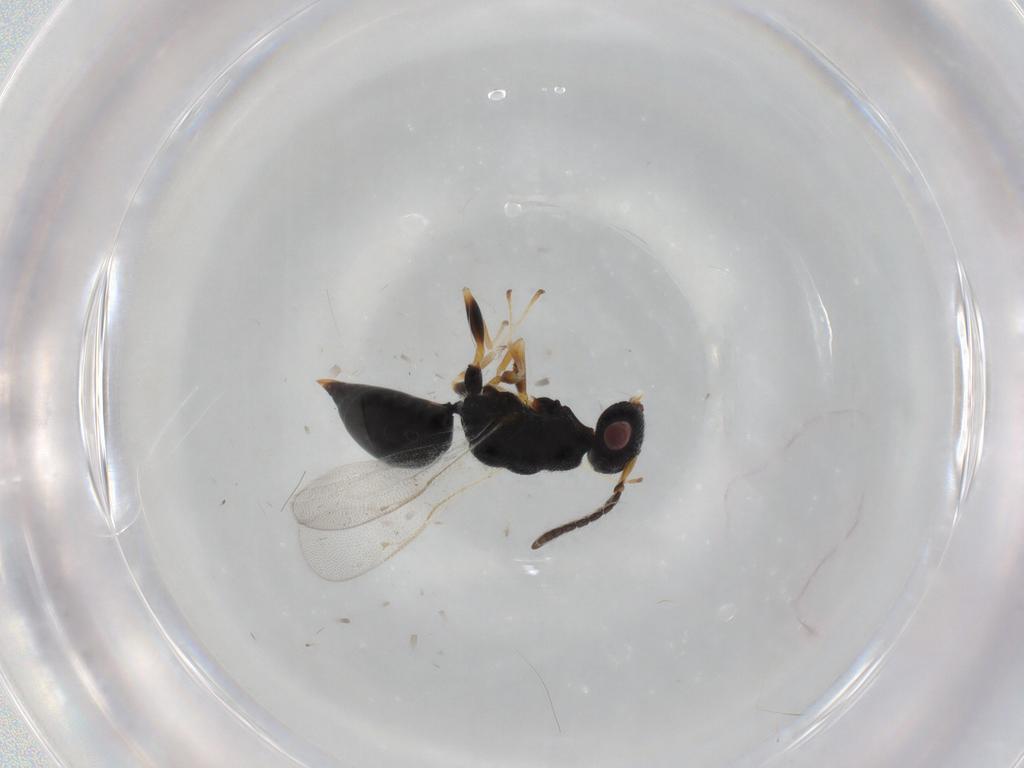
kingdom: Animalia
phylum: Arthropoda
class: Insecta
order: Hymenoptera
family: Eurytomidae
